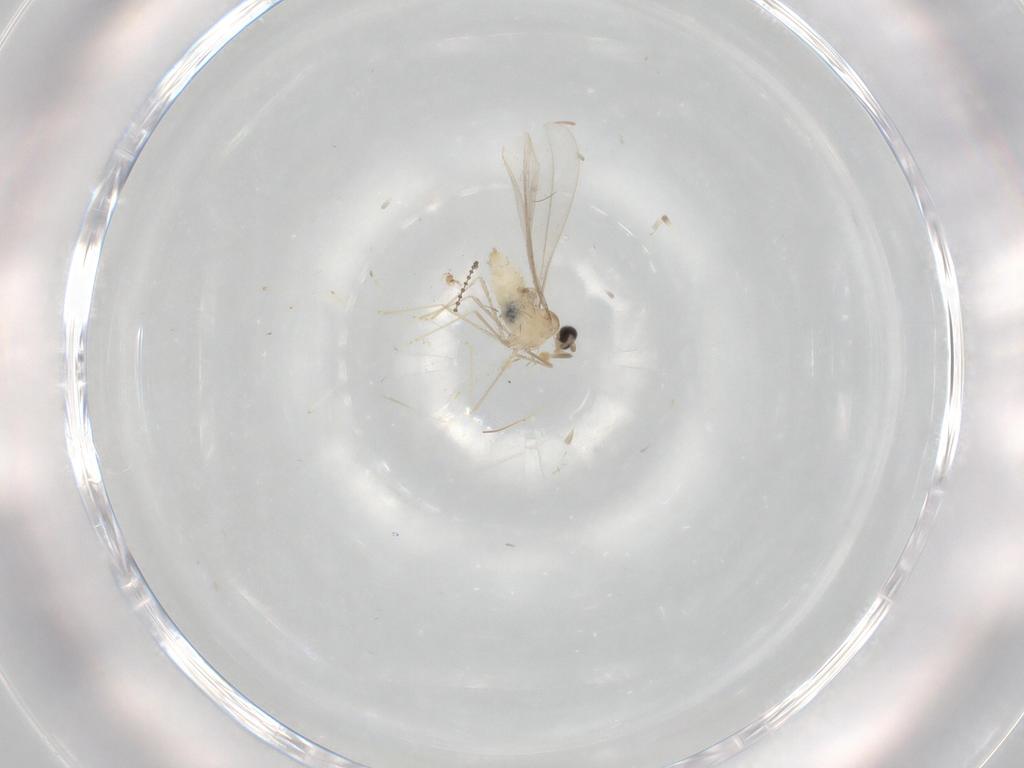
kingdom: Animalia
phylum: Arthropoda
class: Insecta
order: Diptera
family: Cecidomyiidae
